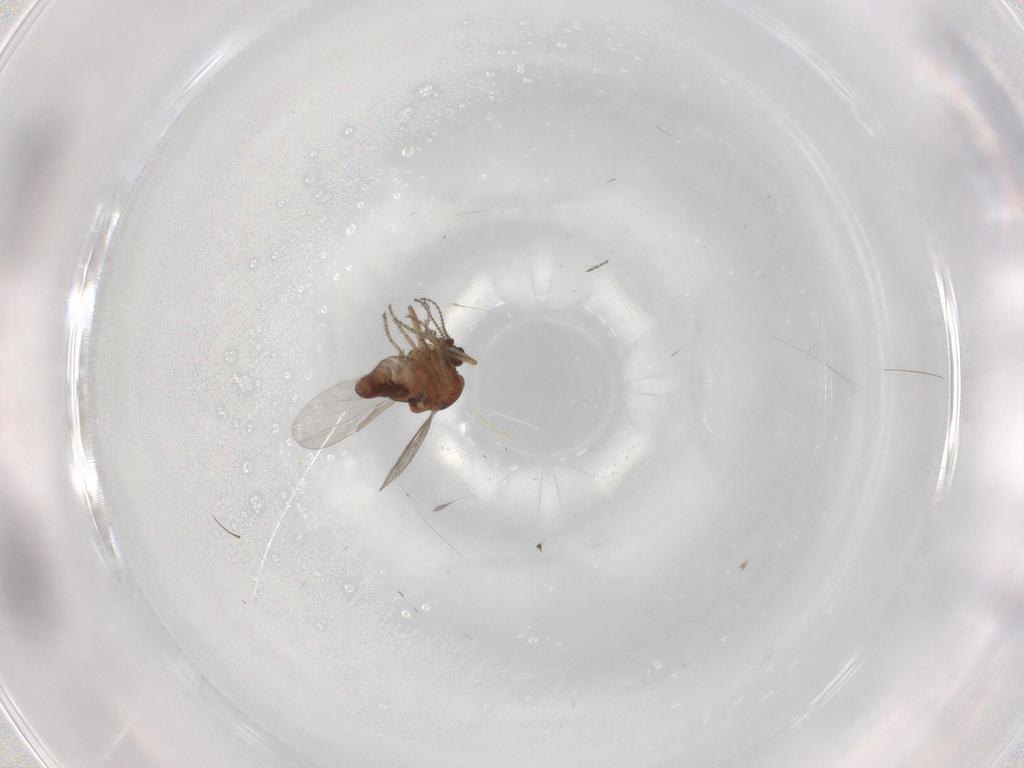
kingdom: Animalia
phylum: Arthropoda
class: Insecta
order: Diptera
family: Ceratopogonidae
